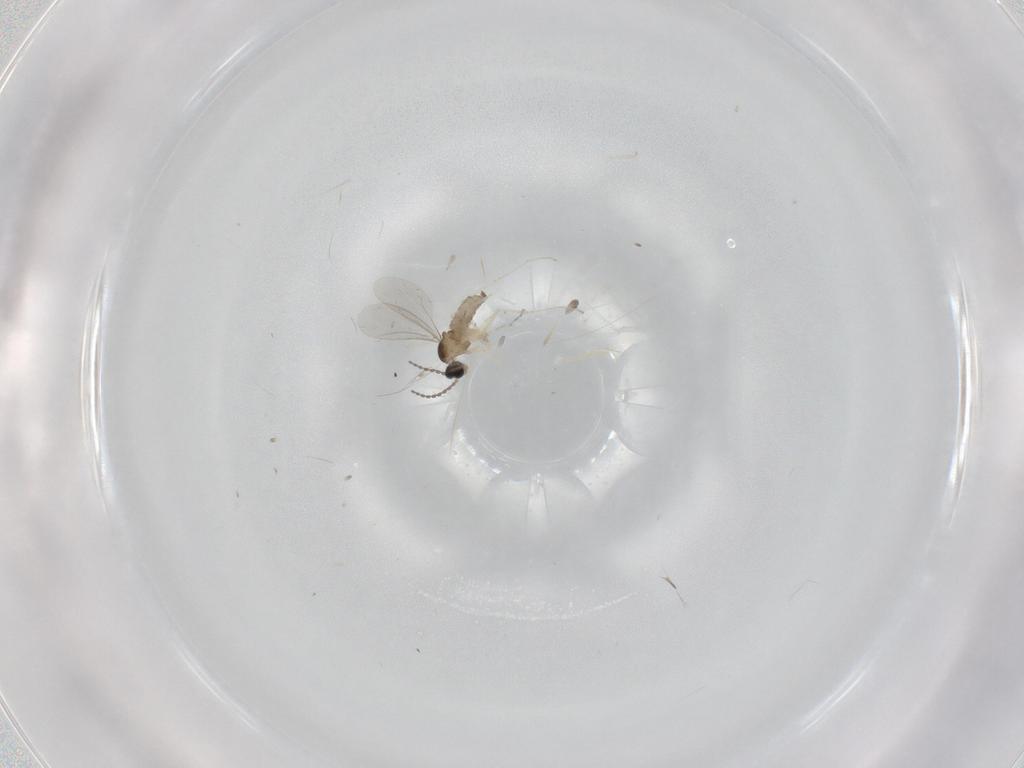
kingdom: Animalia
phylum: Arthropoda
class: Insecta
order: Diptera
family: Cecidomyiidae
